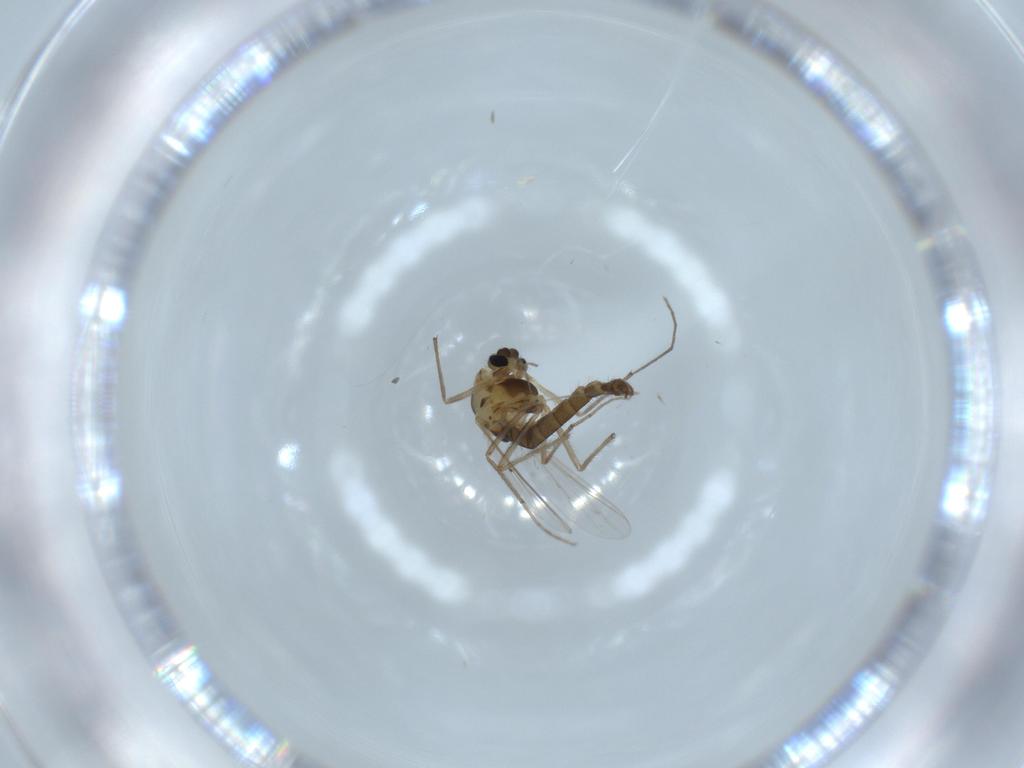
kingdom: Animalia
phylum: Arthropoda
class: Insecta
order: Diptera
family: Chironomidae
